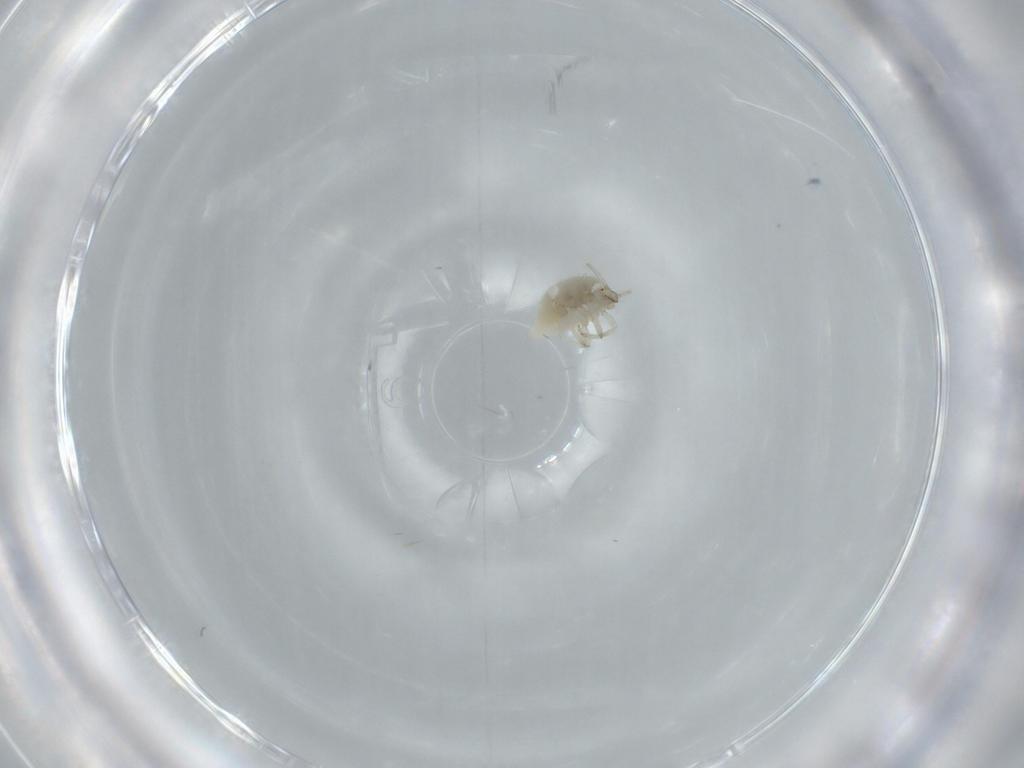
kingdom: Animalia
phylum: Arthropoda
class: Insecta
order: Neuroptera
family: Coniopterygidae
